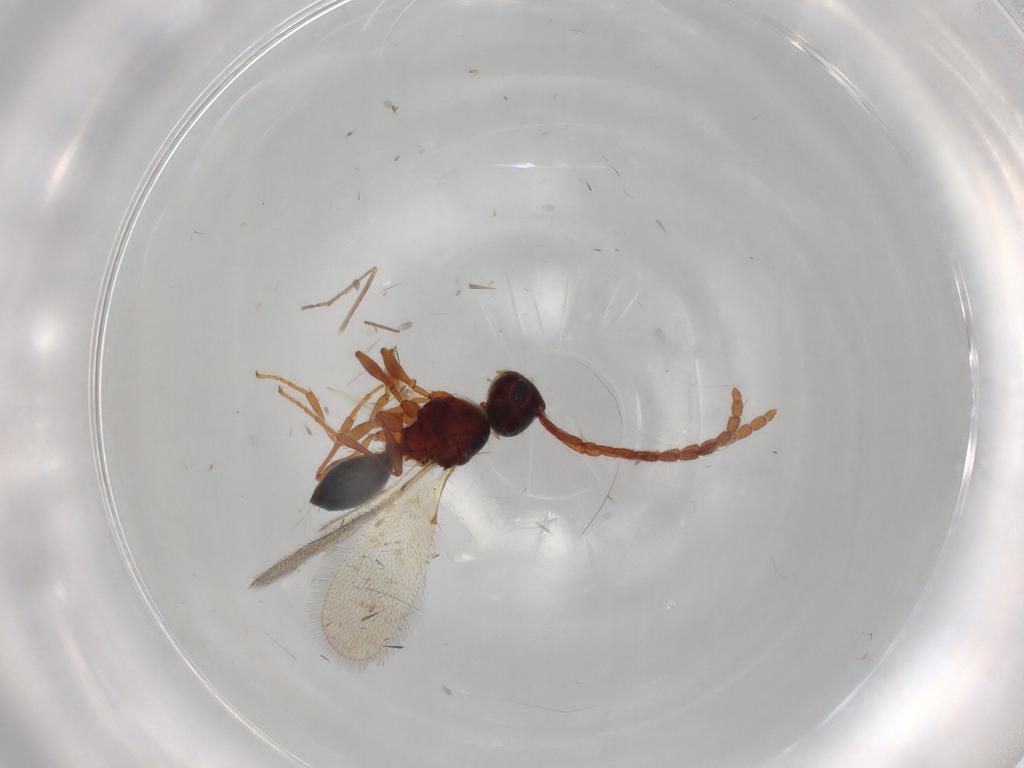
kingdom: Animalia
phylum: Arthropoda
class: Insecta
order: Hymenoptera
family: Diapriidae
